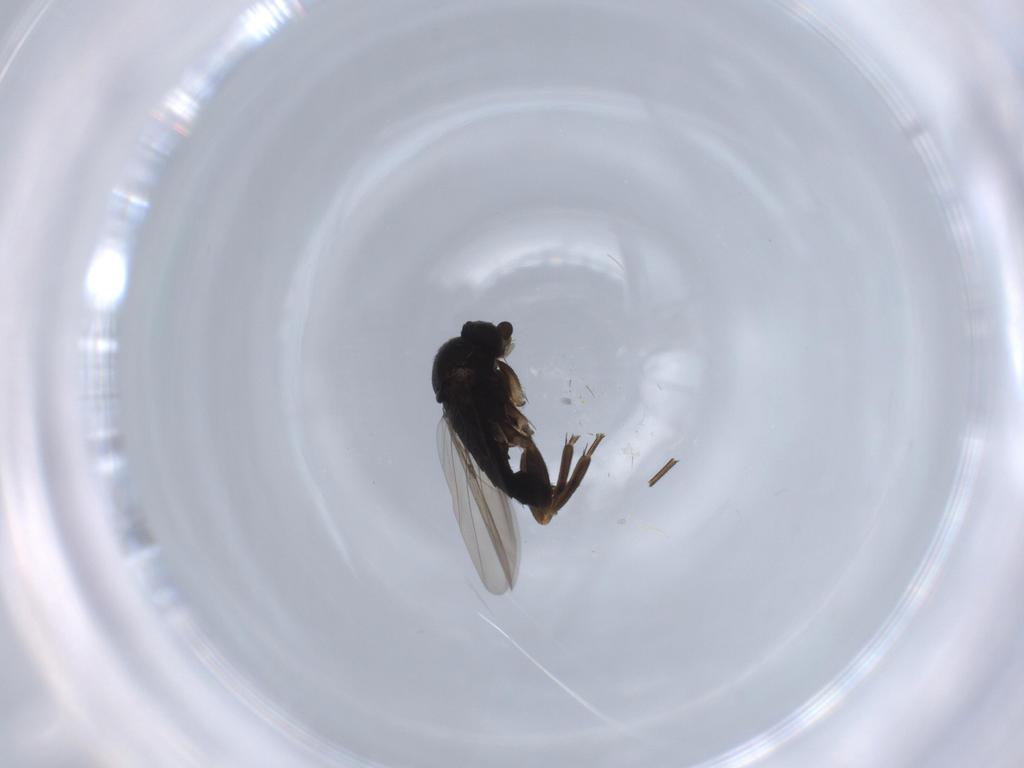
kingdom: Animalia
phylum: Arthropoda
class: Insecta
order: Diptera
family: Phoridae
